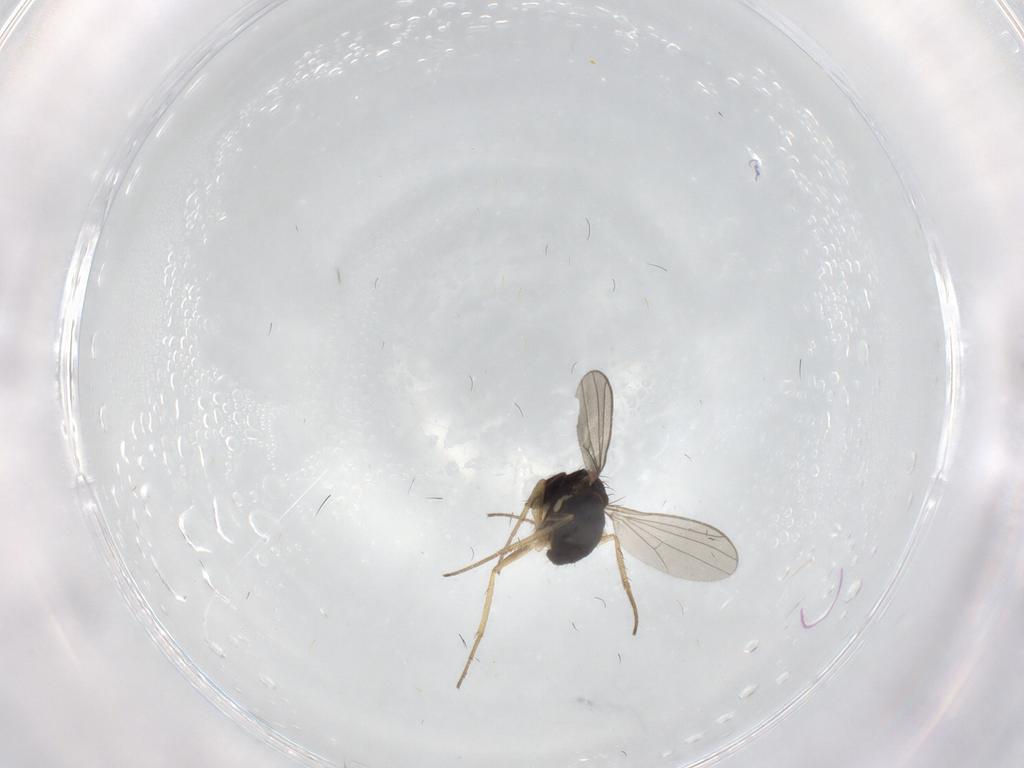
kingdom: Animalia
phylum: Arthropoda
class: Insecta
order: Diptera
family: Dolichopodidae
